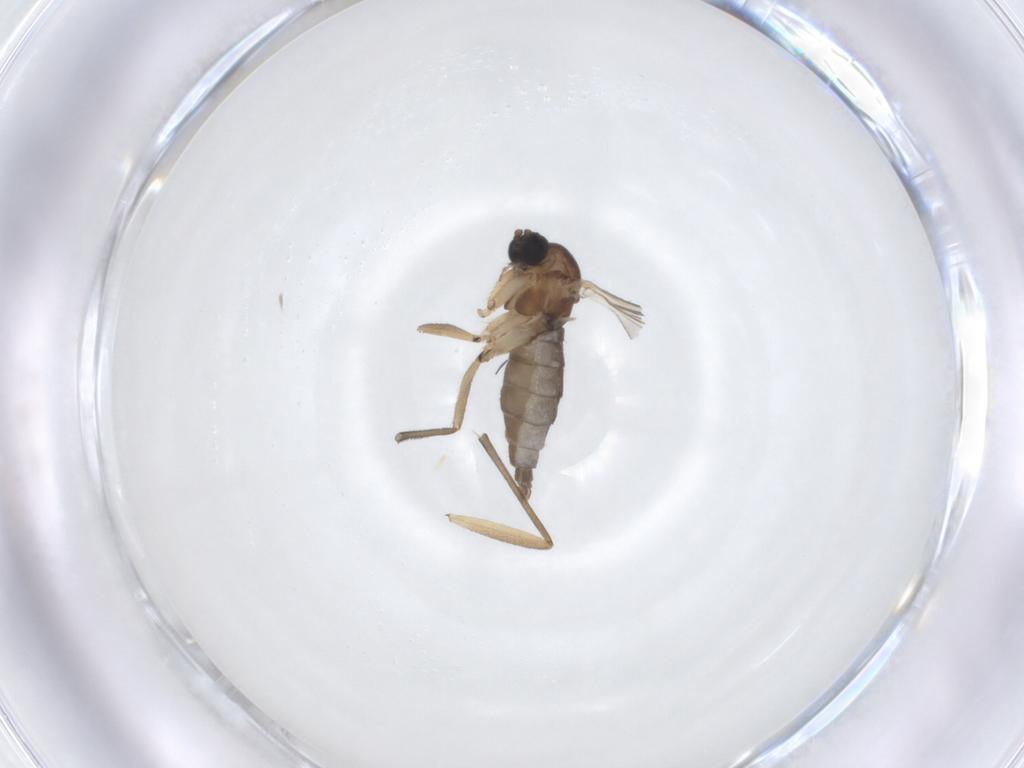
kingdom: Animalia
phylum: Arthropoda
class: Insecta
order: Diptera
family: Sciaridae
